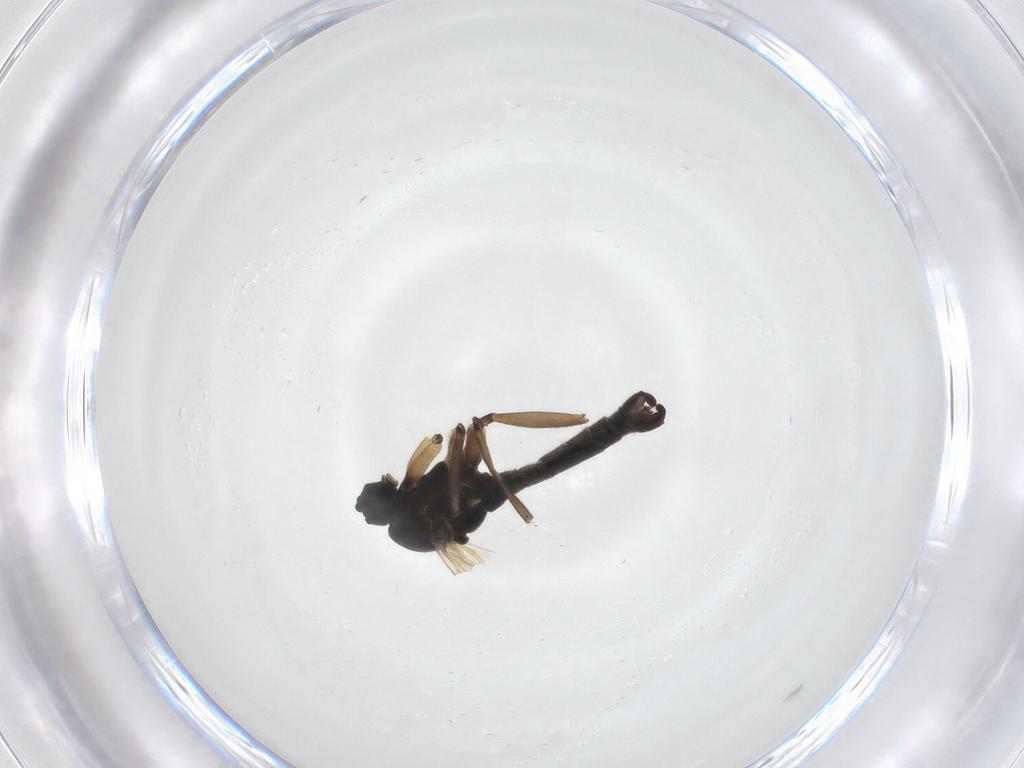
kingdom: Animalia
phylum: Arthropoda
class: Insecta
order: Diptera
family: Sciaridae
